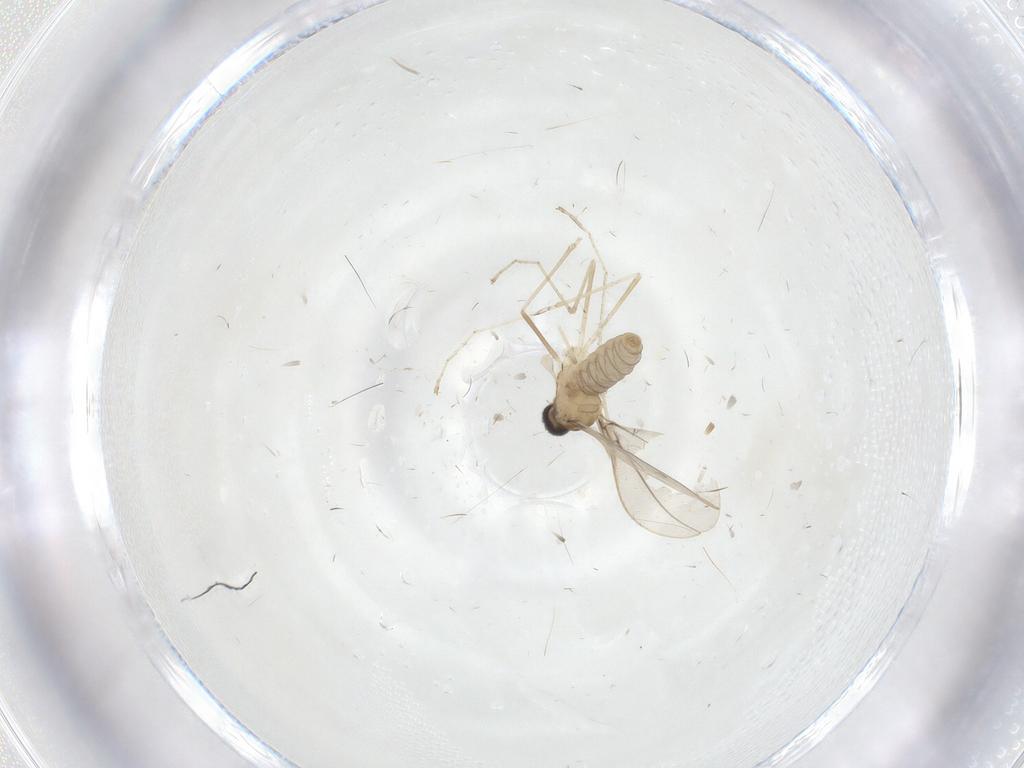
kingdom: Animalia
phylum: Arthropoda
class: Insecta
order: Diptera
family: Cecidomyiidae
